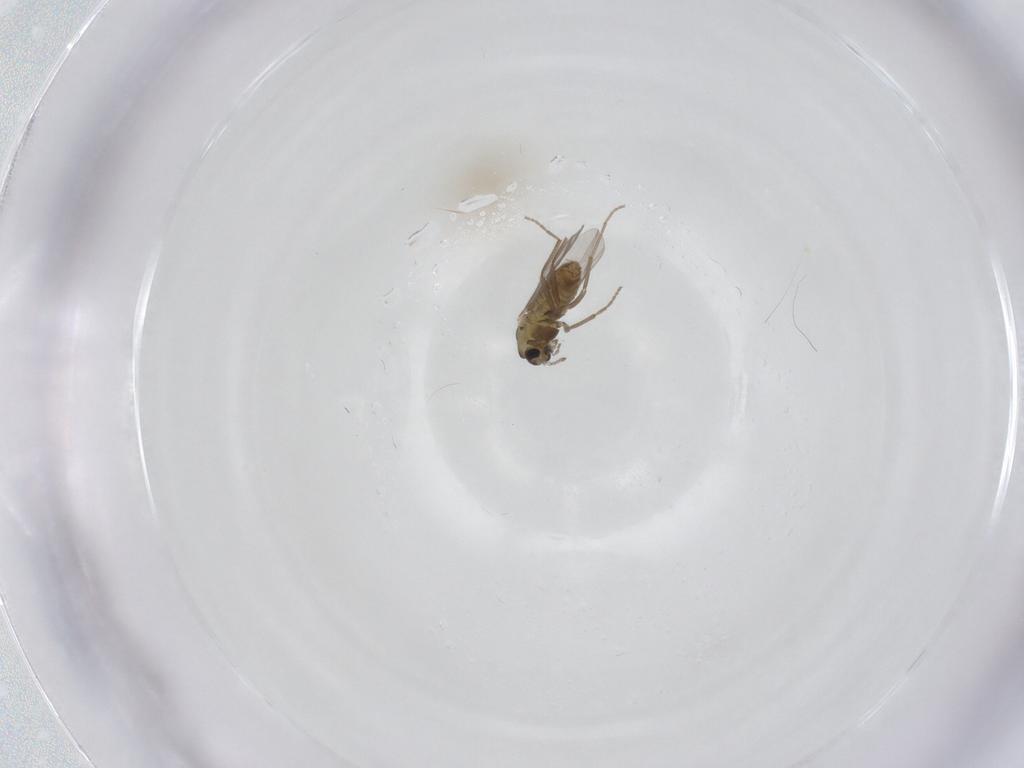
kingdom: Animalia
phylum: Arthropoda
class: Insecta
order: Diptera
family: Chironomidae
